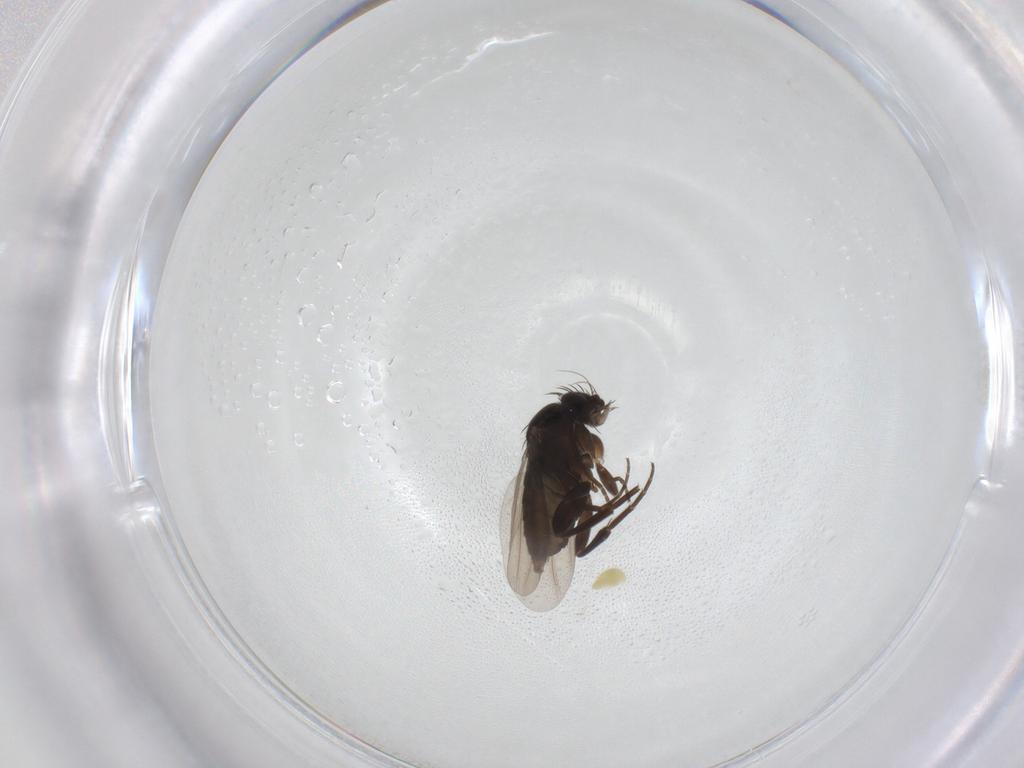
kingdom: Animalia
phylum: Arthropoda
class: Insecta
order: Diptera
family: Phoridae
